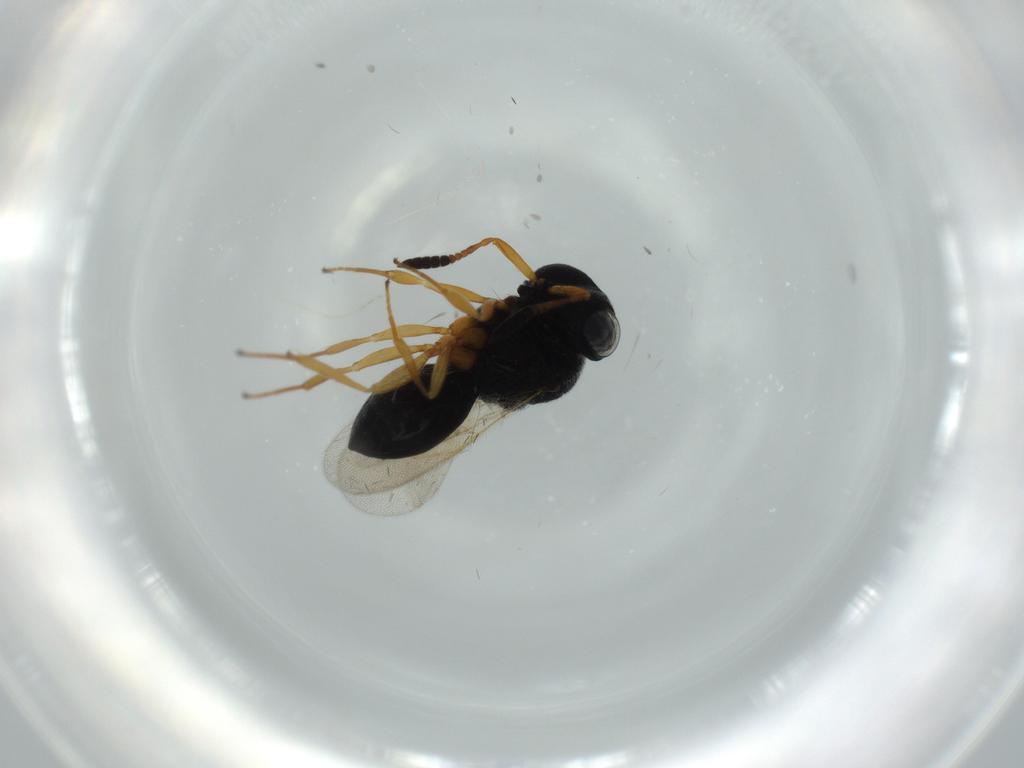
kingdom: Animalia
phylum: Arthropoda
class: Insecta
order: Hymenoptera
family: Scelionidae
